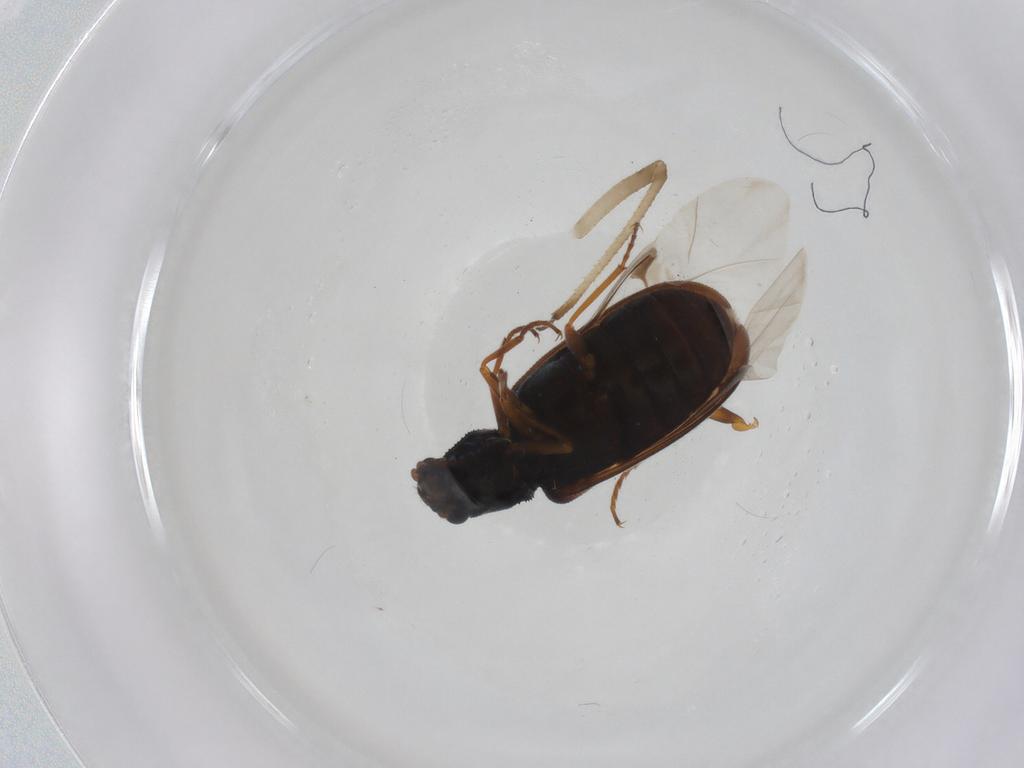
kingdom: Animalia
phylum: Arthropoda
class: Insecta
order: Coleoptera
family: Melyridae
